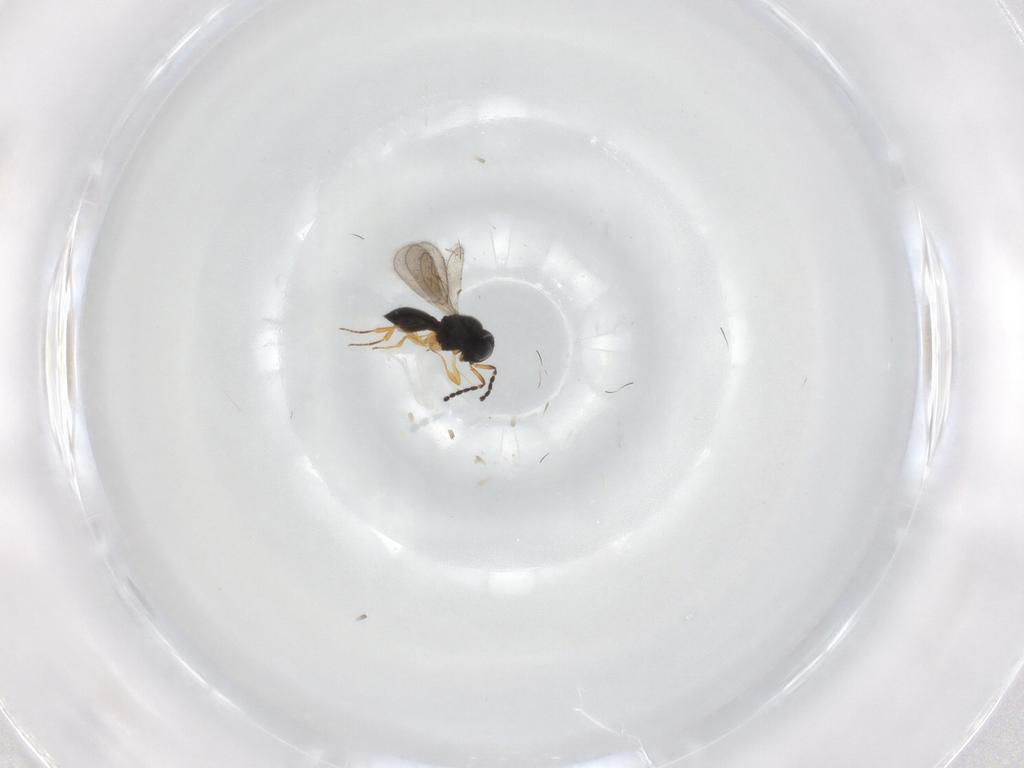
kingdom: Animalia
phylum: Arthropoda
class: Insecta
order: Hymenoptera
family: Scelionidae
